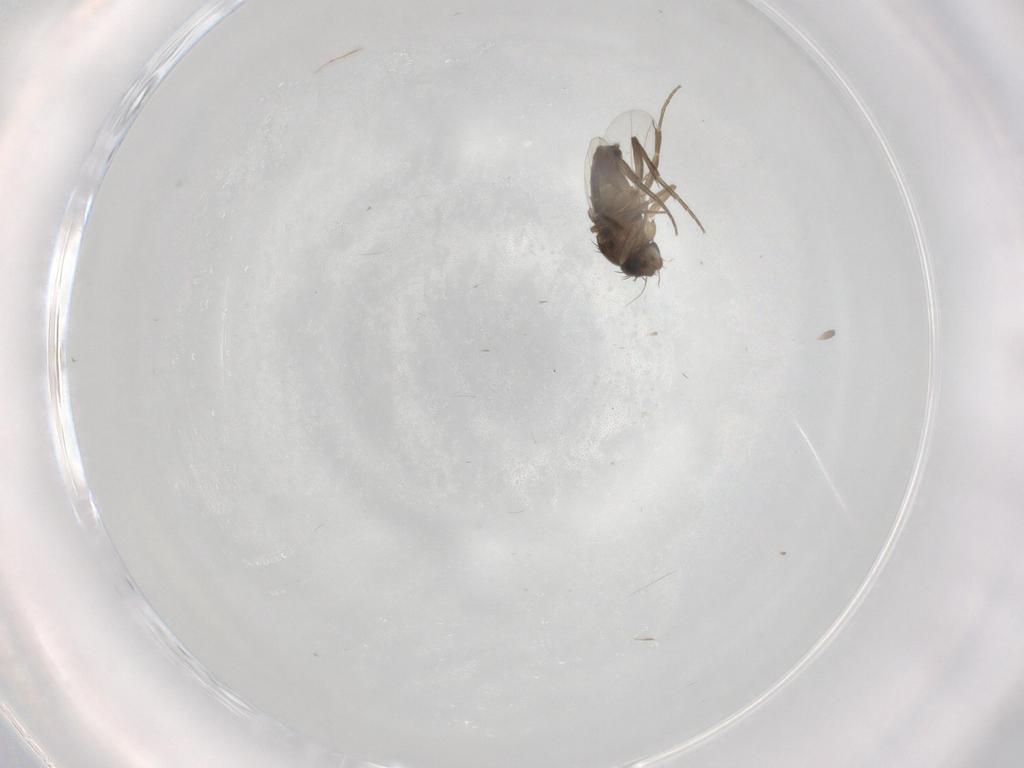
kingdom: Animalia
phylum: Arthropoda
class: Insecta
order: Diptera
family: Phoridae
